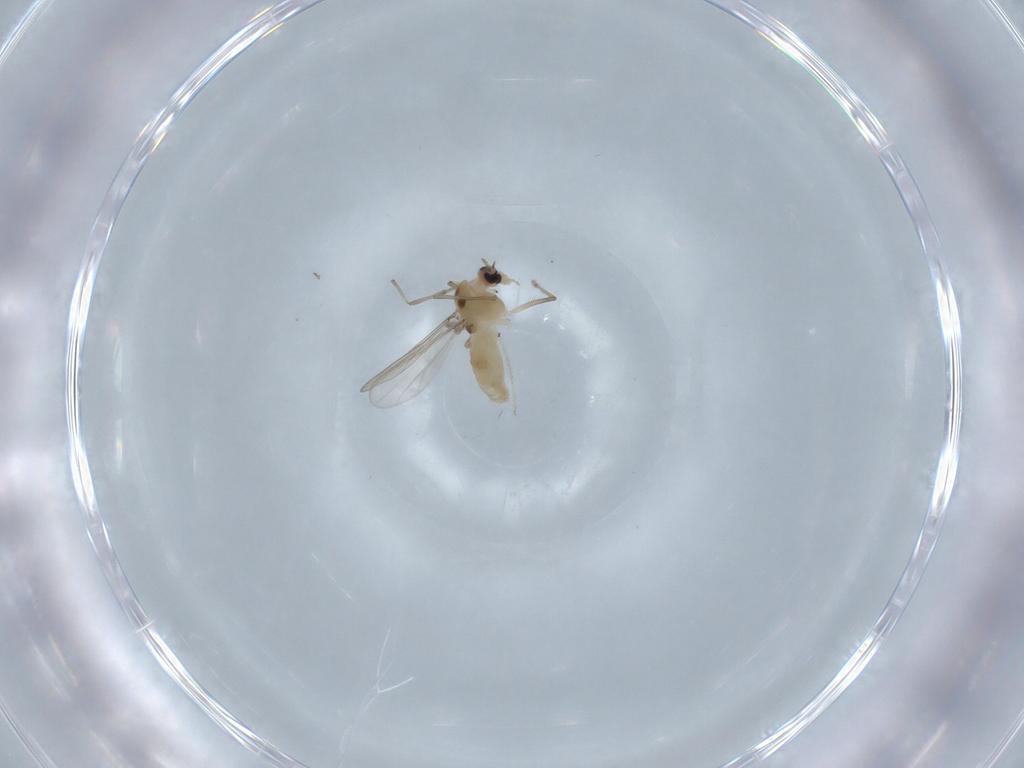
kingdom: Animalia
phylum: Arthropoda
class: Insecta
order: Diptera
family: Chironomidae
